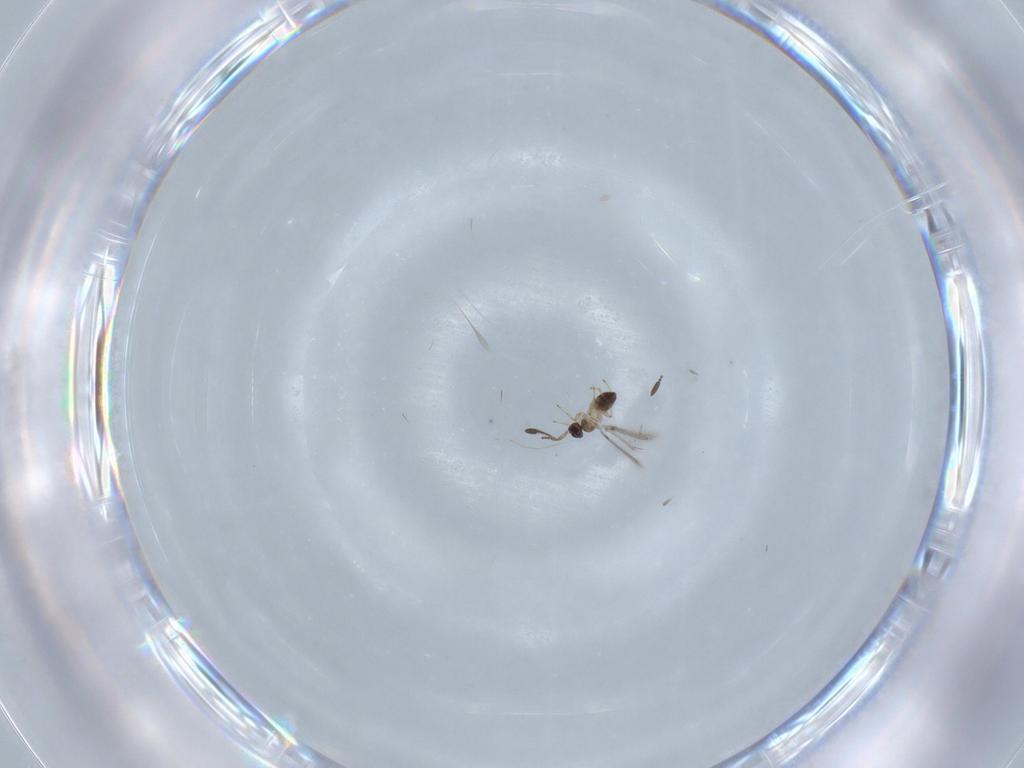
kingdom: Animalia
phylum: Arthropoda
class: Insecta
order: Hymenoptera
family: Mymaridae
